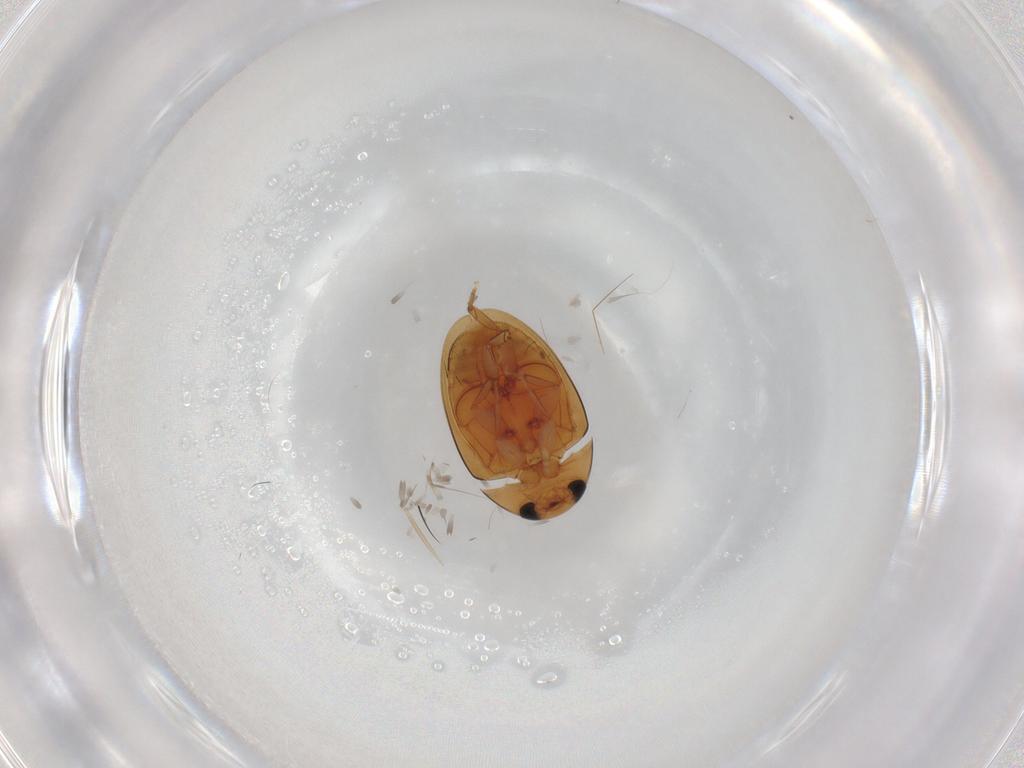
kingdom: Animalia
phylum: Arthropoda
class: Insecta
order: Coleoptera
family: Phalacridae
